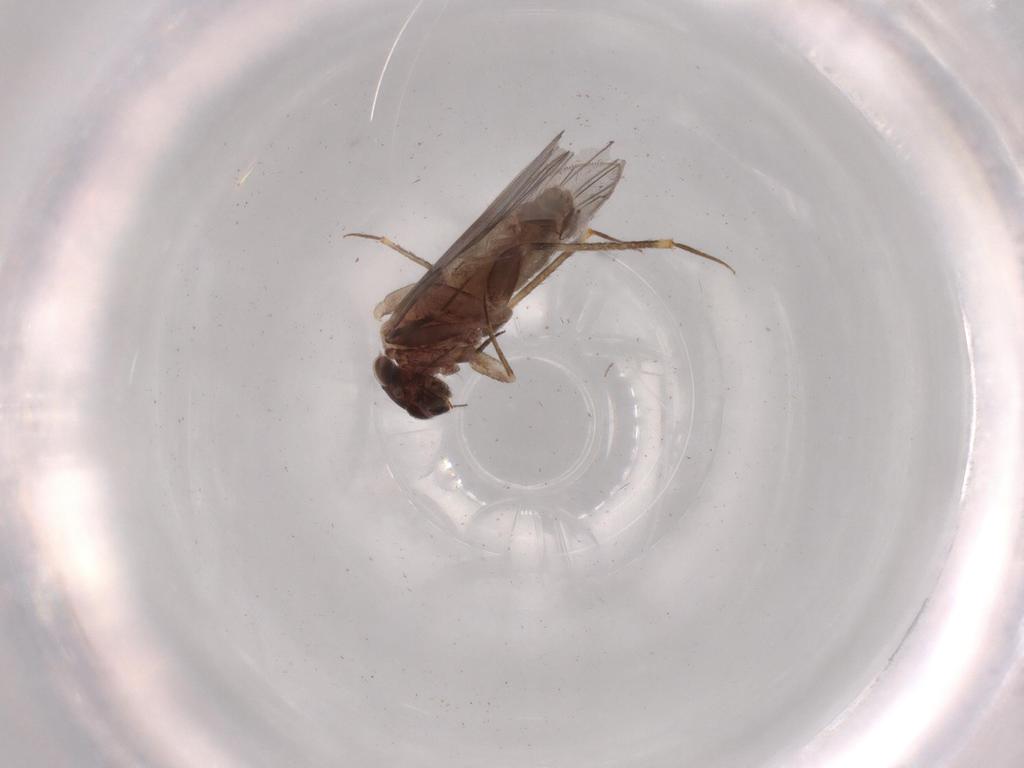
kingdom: Animalia
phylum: Arthropoda
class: Insecta
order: Psocodea
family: Lepidopsocidae
